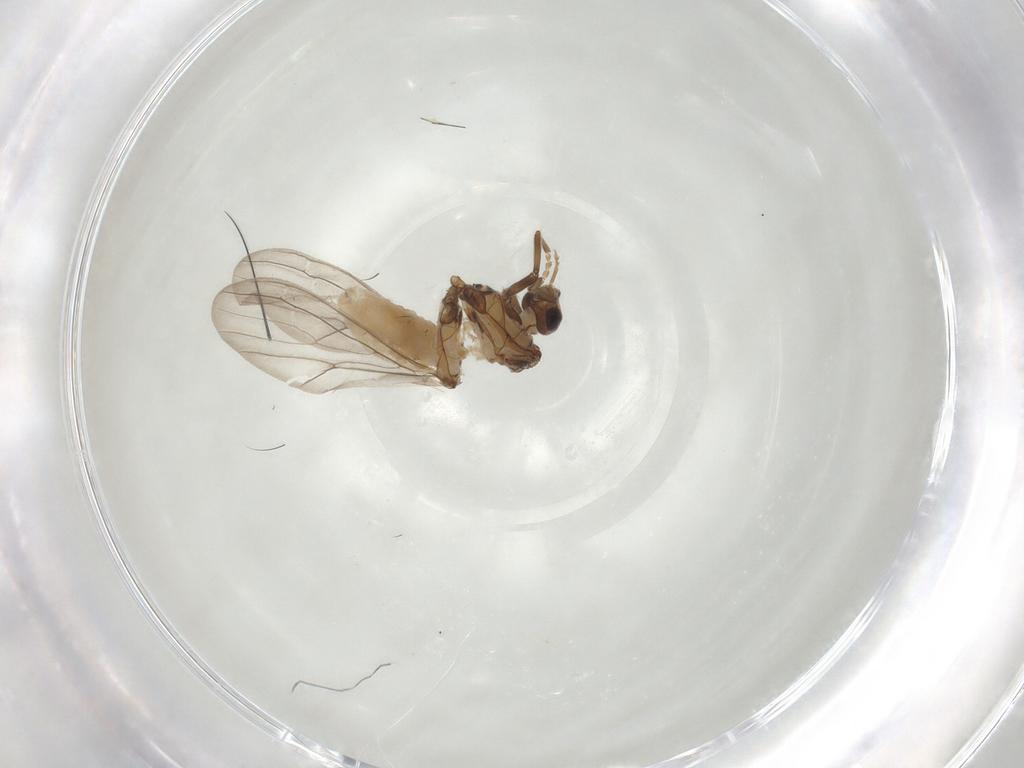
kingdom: Animalia
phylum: Arthropoda
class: Insecta
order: Neuroptera
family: Coniopterygidae
